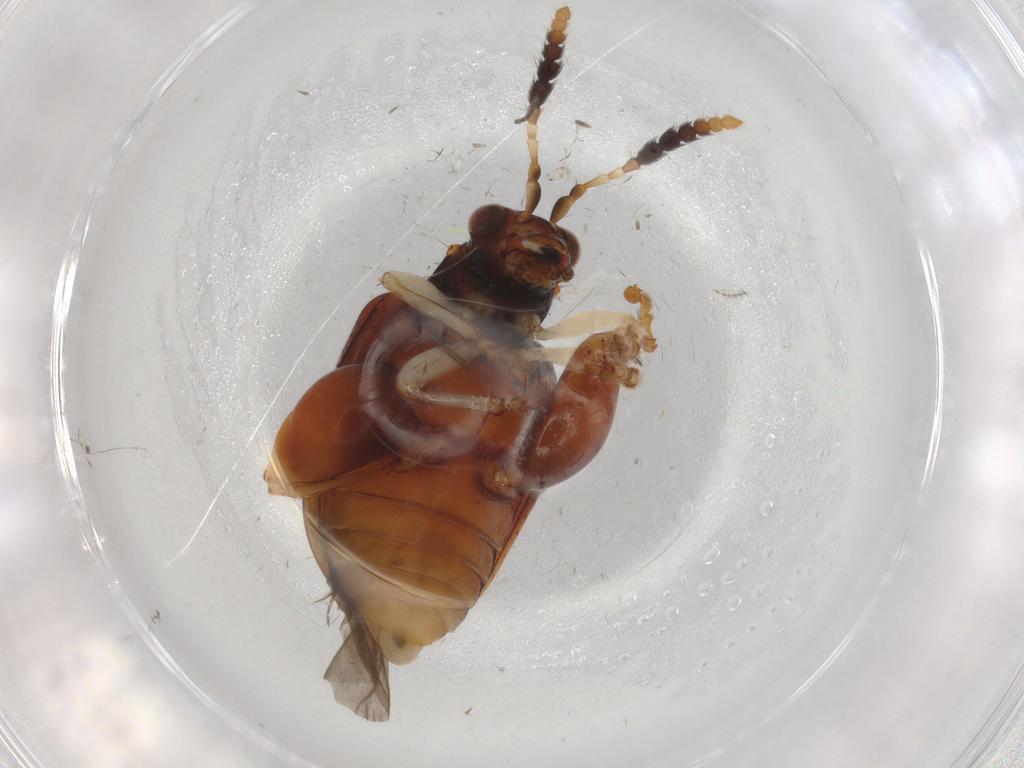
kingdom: Animalia
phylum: Arthropoda
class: Insecta
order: Coleoptera
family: Chrysomelidae
